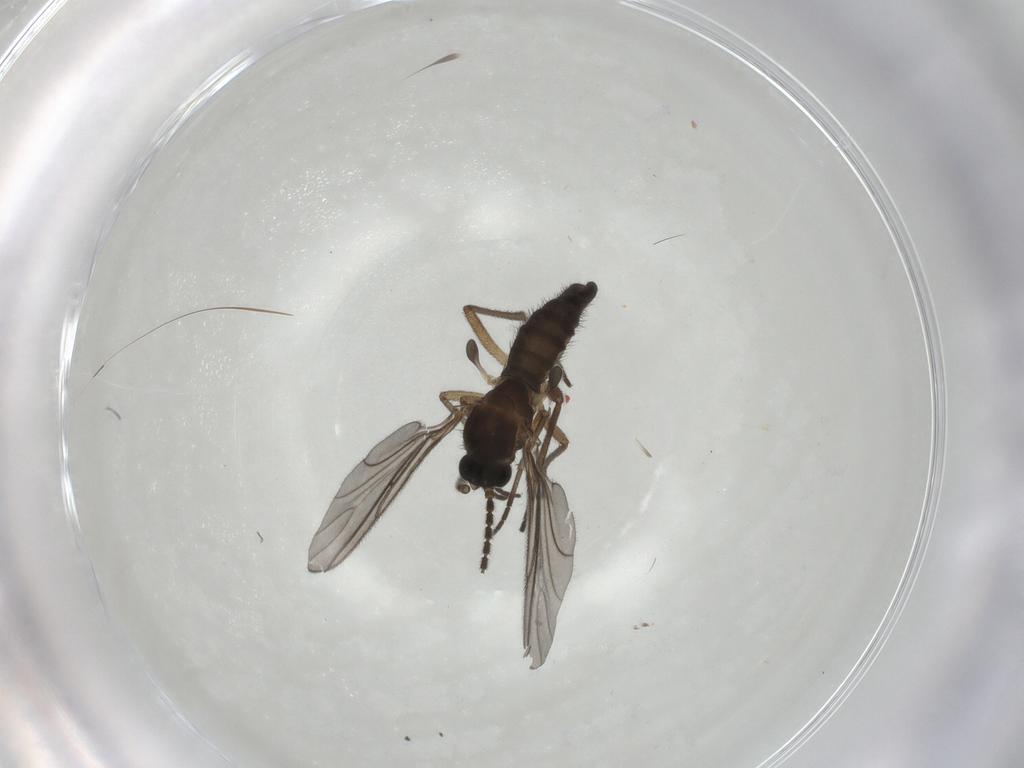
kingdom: Animalia
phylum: Arthropoda
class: Insecta
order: Diptera
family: Sciaridae
